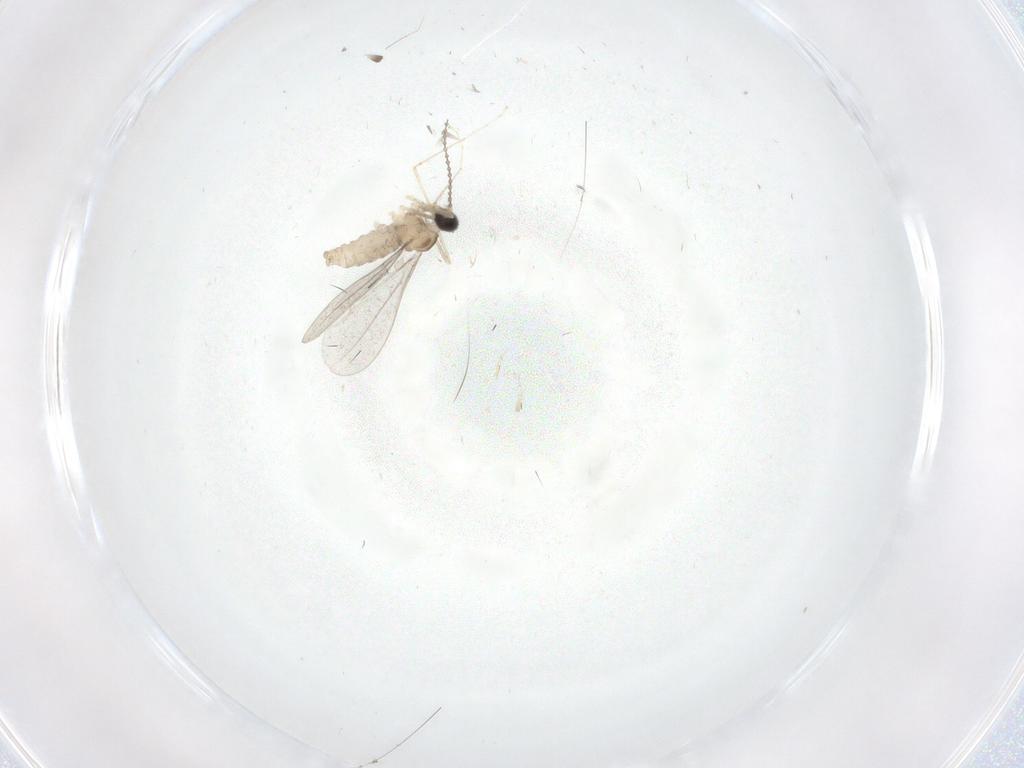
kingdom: Animalia
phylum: Arthropoda
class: Insecta
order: Diptera
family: Cecidomyiidae
